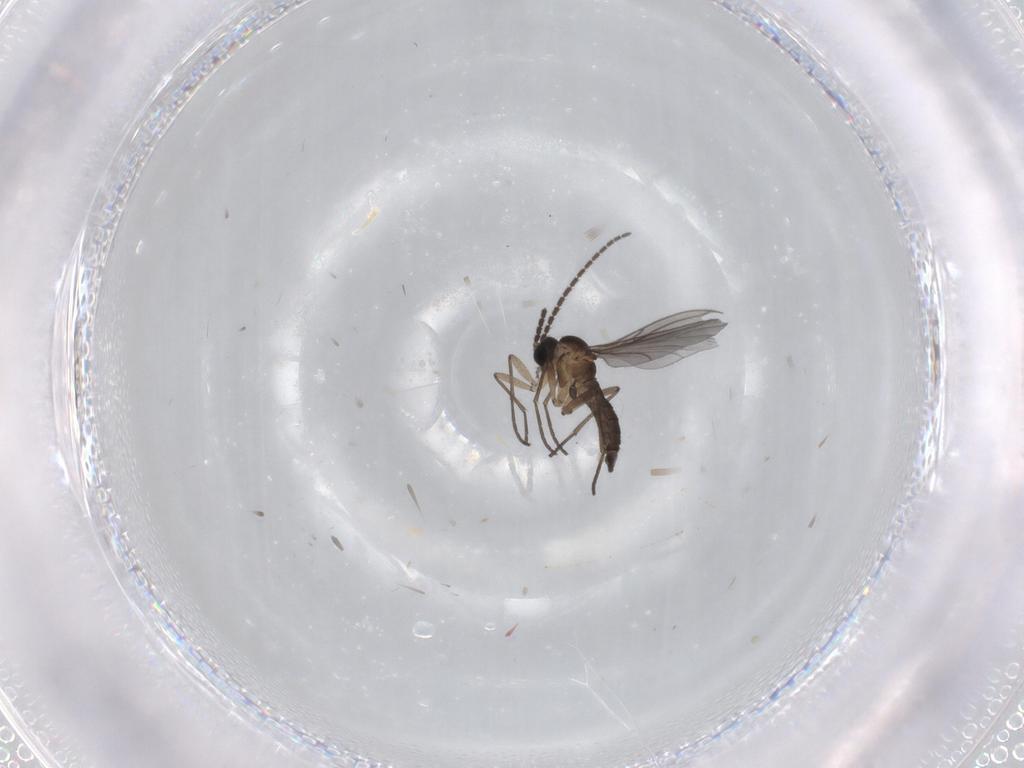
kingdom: Animalia
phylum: Arthropoda
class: Insecta
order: Diptera
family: Sciaridae
